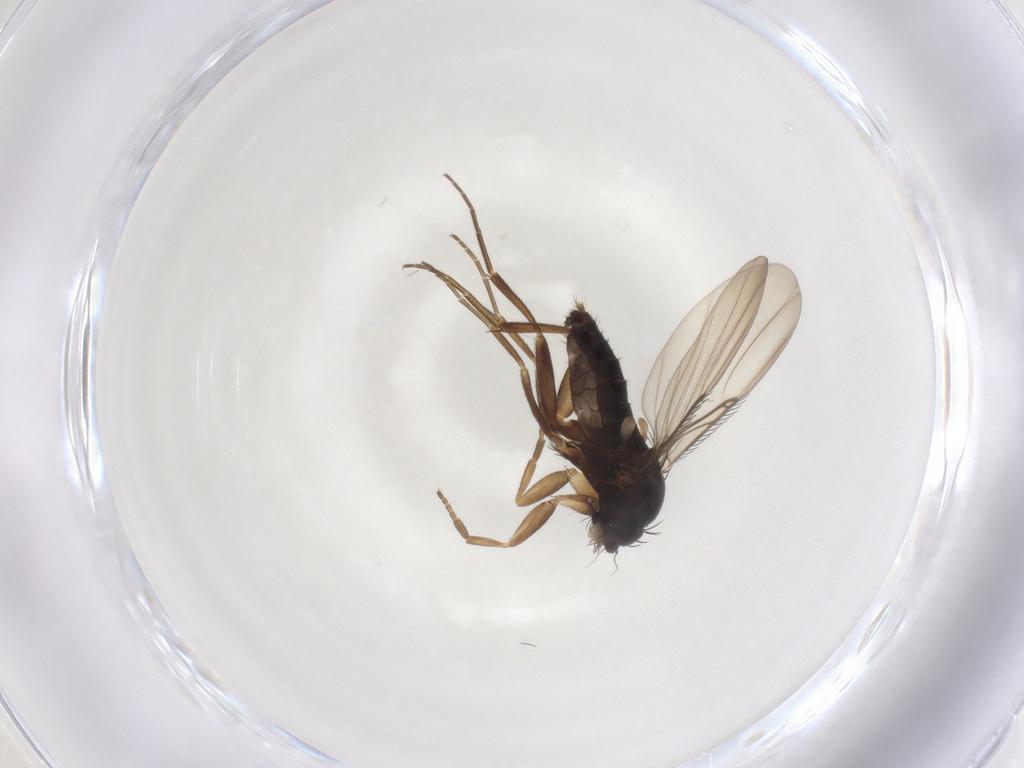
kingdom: Animalia
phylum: Arthropoda
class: Insecta
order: Diptera
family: Phoridae
